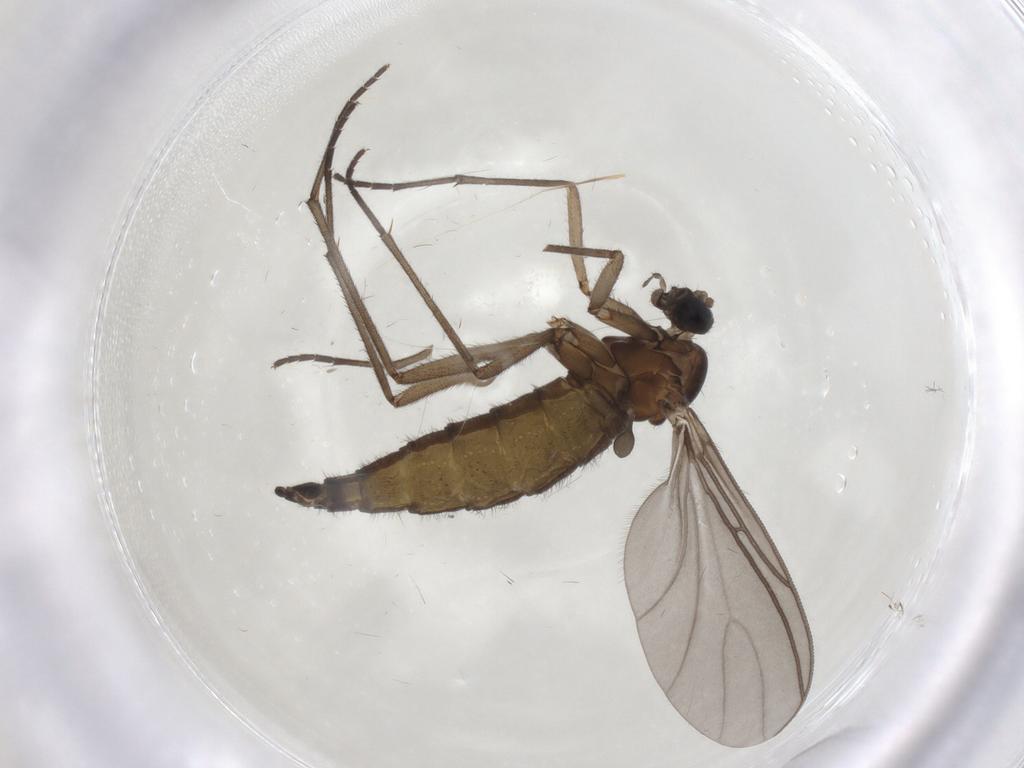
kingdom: Animalia
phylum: Arthropoda
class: Insecta
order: Diptera
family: Sciaridae
